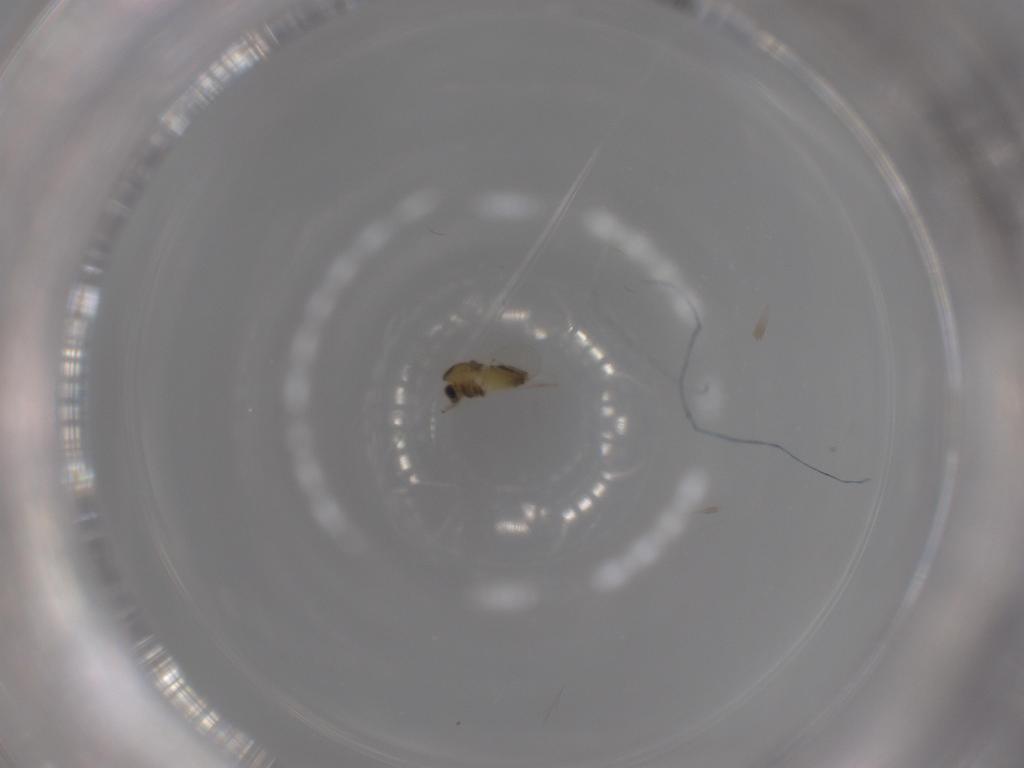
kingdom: Animalia
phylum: Arthropoda
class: Insecta
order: Diptera
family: Chironomidae
